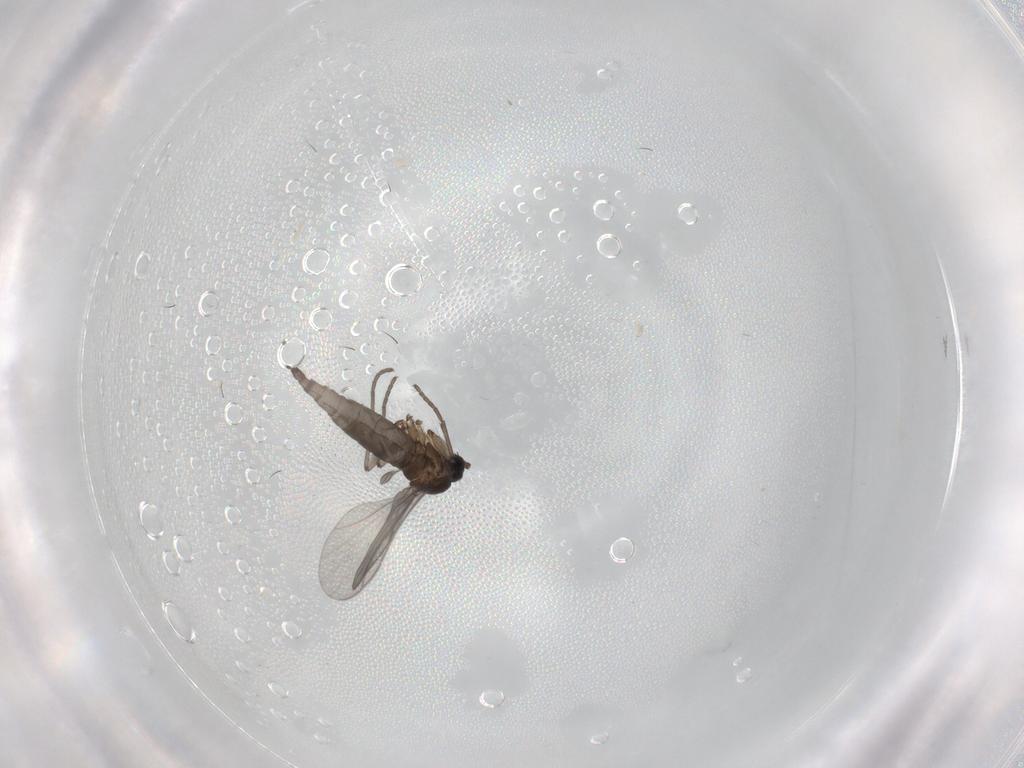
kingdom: Animalia
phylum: Arthropoda
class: Insecta
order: Diptera
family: Sciaridae
